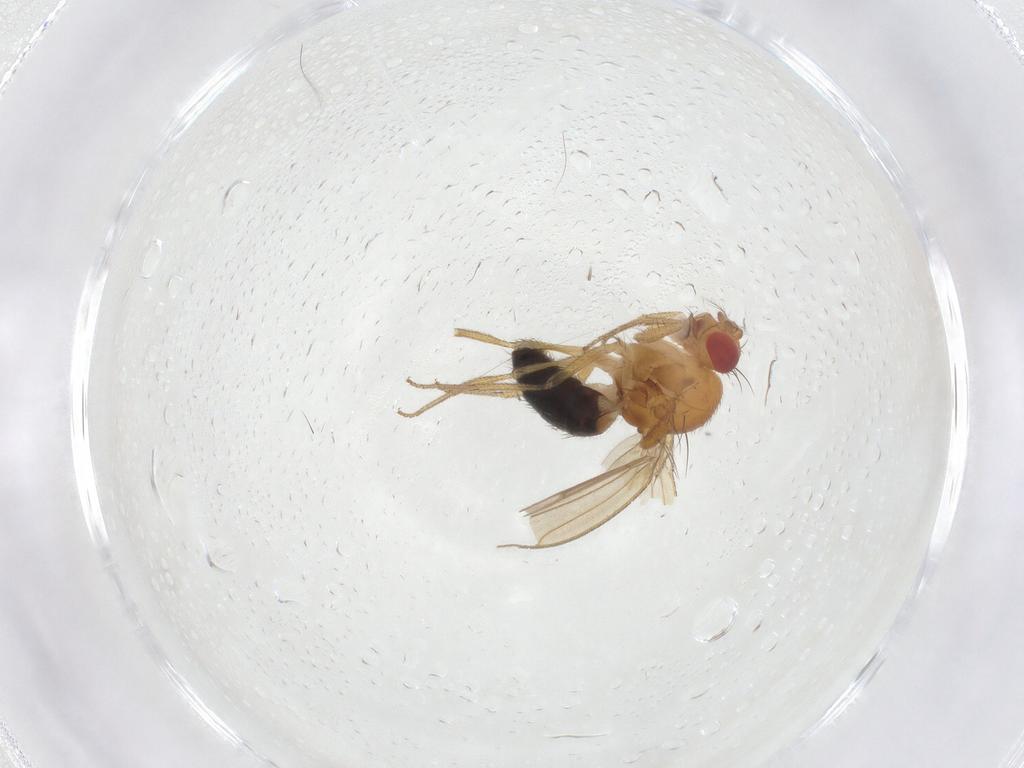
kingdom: Animalia
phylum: Arthropoda
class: Insecta
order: Diptera
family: Drosophilidae
